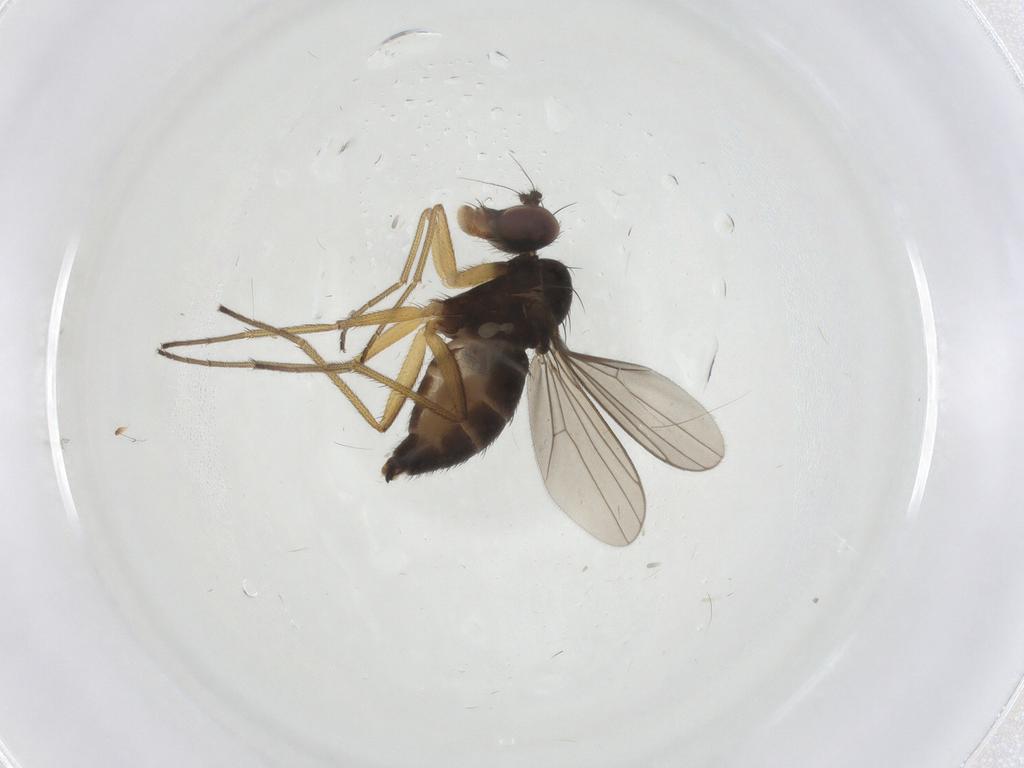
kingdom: Animalia
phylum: Arthropoda
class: Insecta
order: Diptera
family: Dolichopodidae
